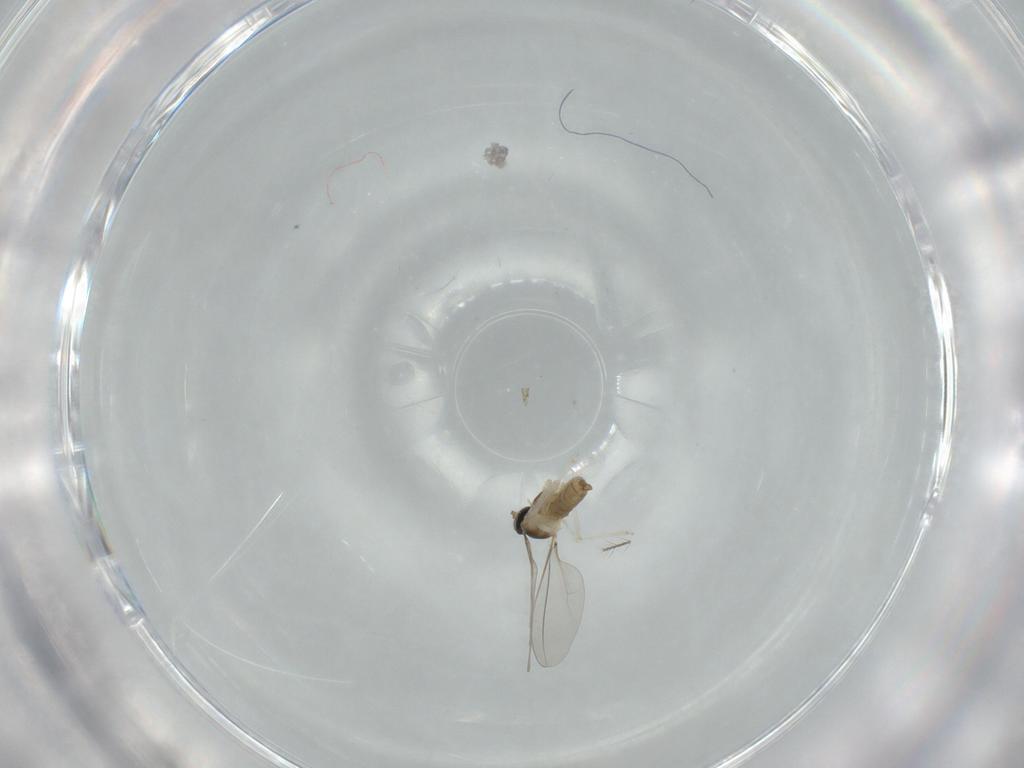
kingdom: Animalia
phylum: Arthropoda
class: Insecta
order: Diptera
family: Cecidomyiidae
